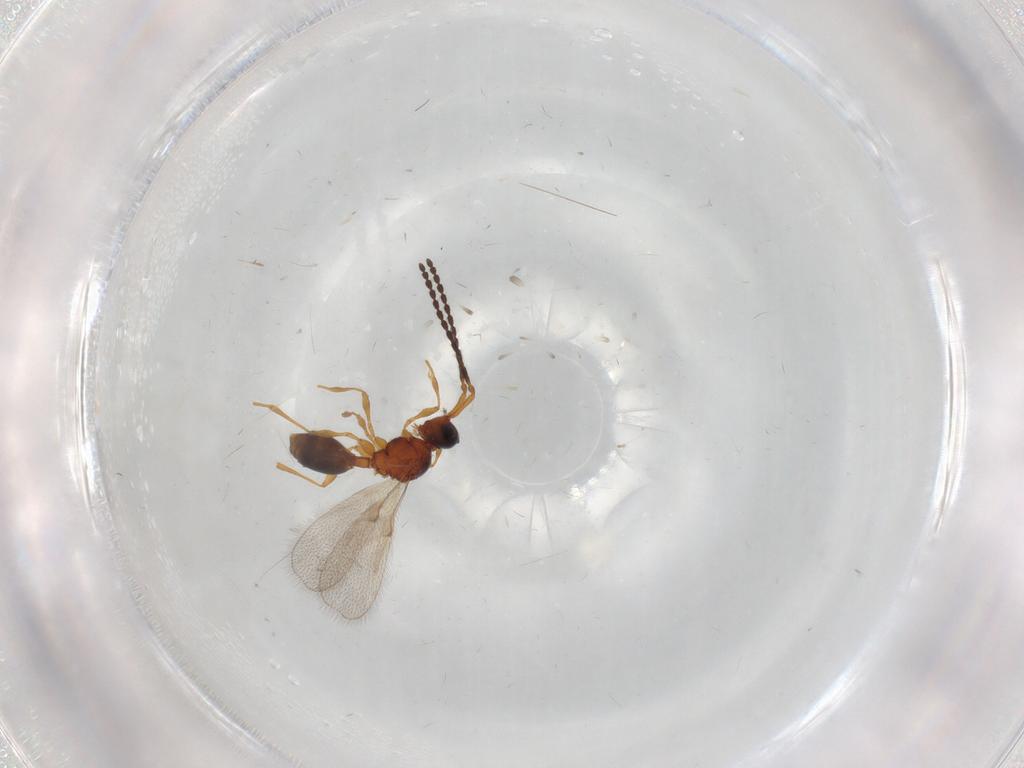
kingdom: Animalia
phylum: Arthropoda
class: Insecta
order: Hymenoptera
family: Diapriidae
